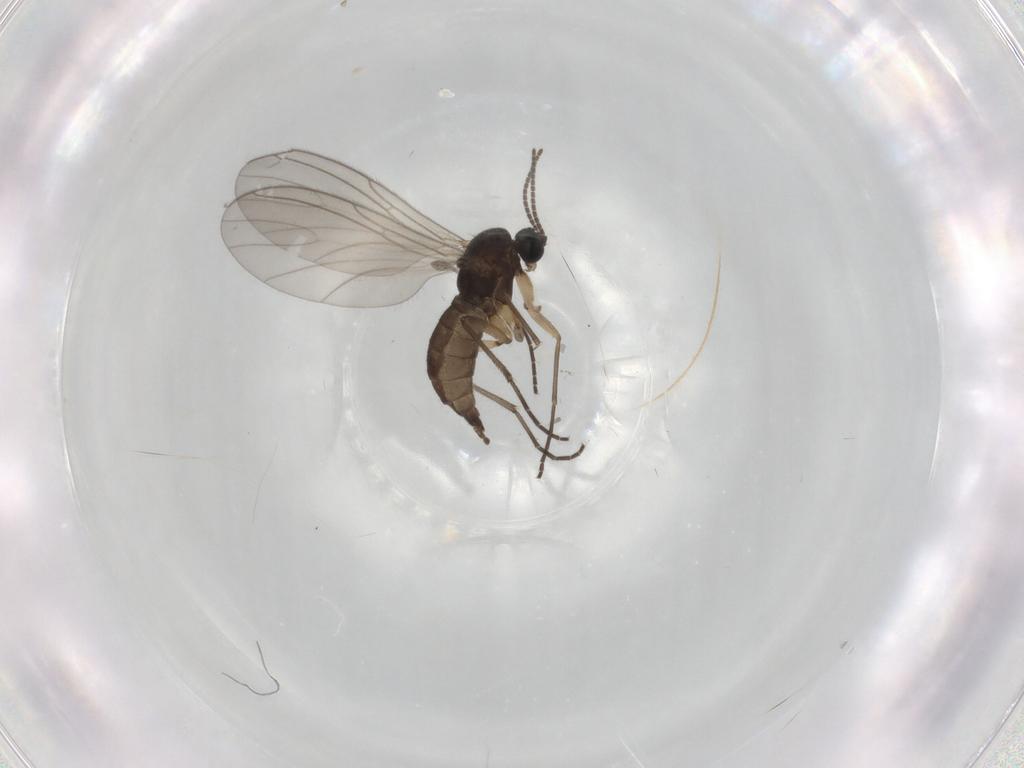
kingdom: Animalia
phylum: Arthropoda
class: Insecta
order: Diptera
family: Sciaridae
